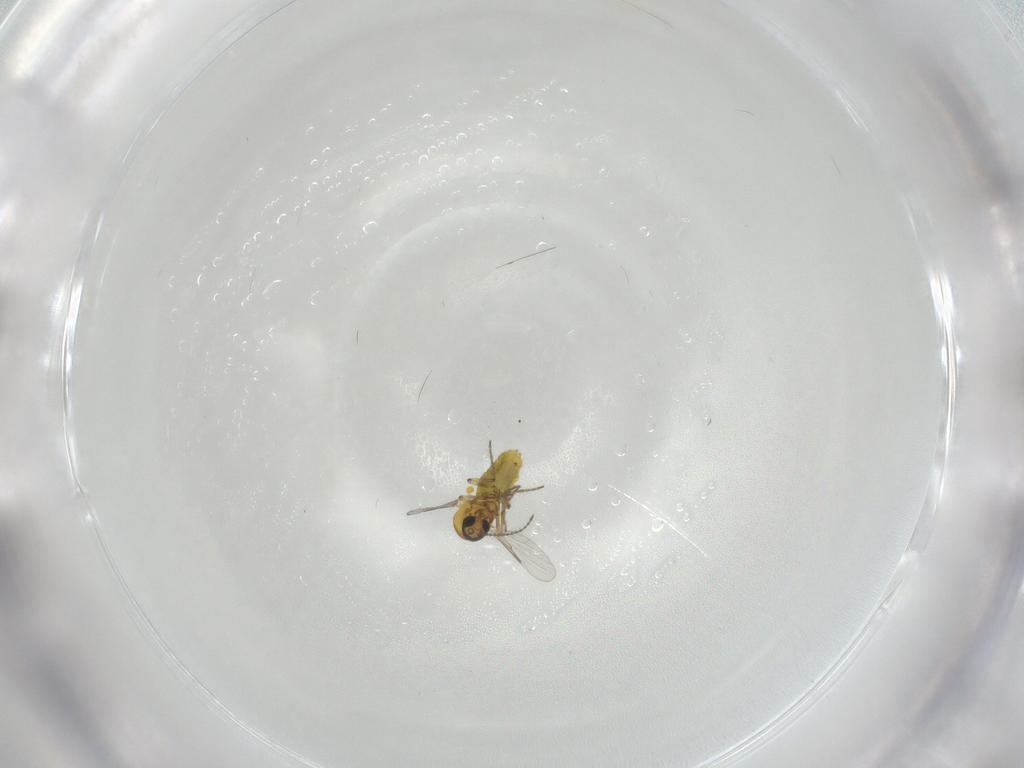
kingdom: Animalia
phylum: Arthropoda
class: Insecta
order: Diptera
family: Ceratopogonidae
